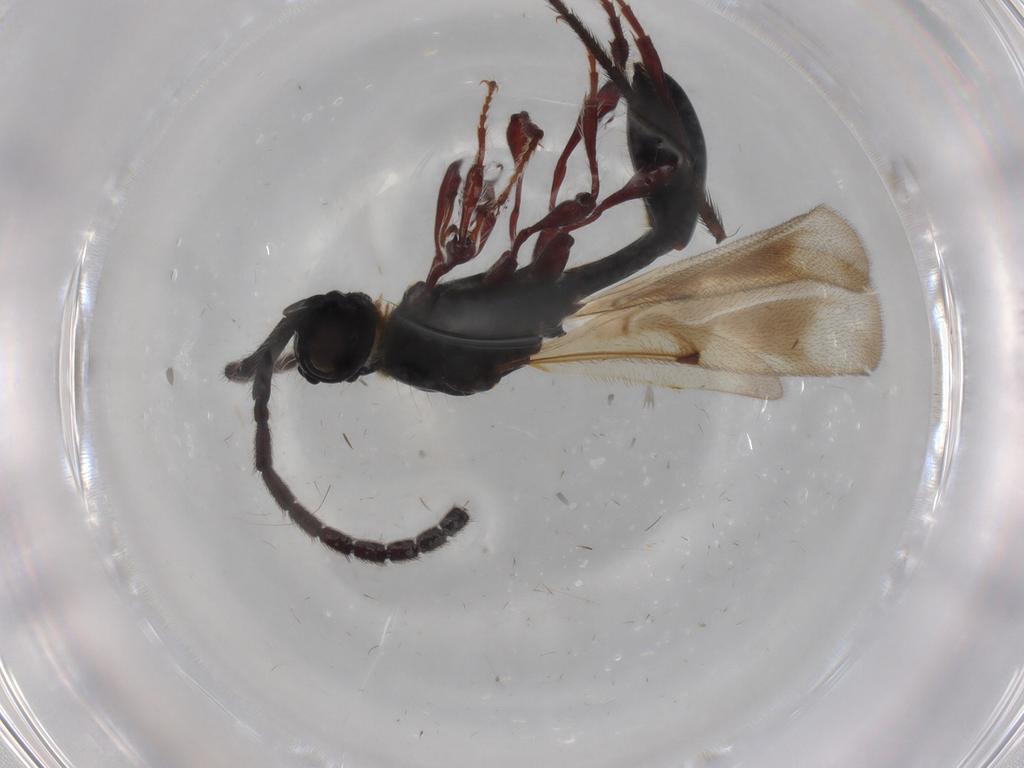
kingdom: Animalia
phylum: Arthropoda
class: Insecta
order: Hymenoptera
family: Diapriidae
